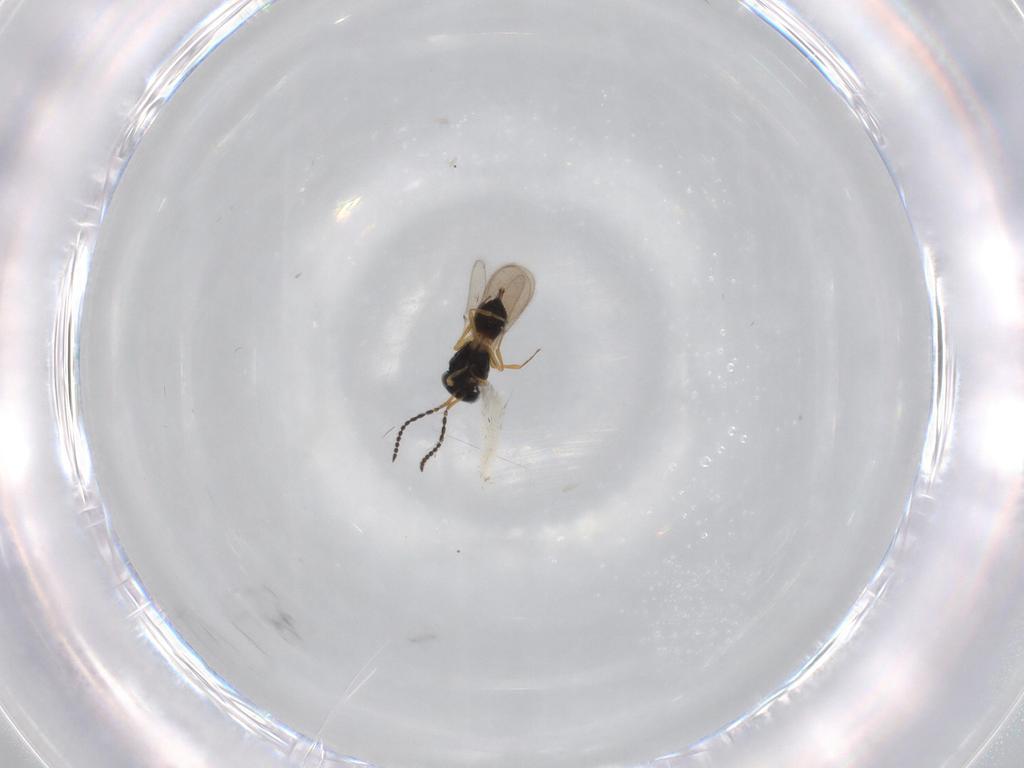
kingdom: Animalia
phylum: Arthropoda
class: Insecta
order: Hymenoptera
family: Scelionidae
